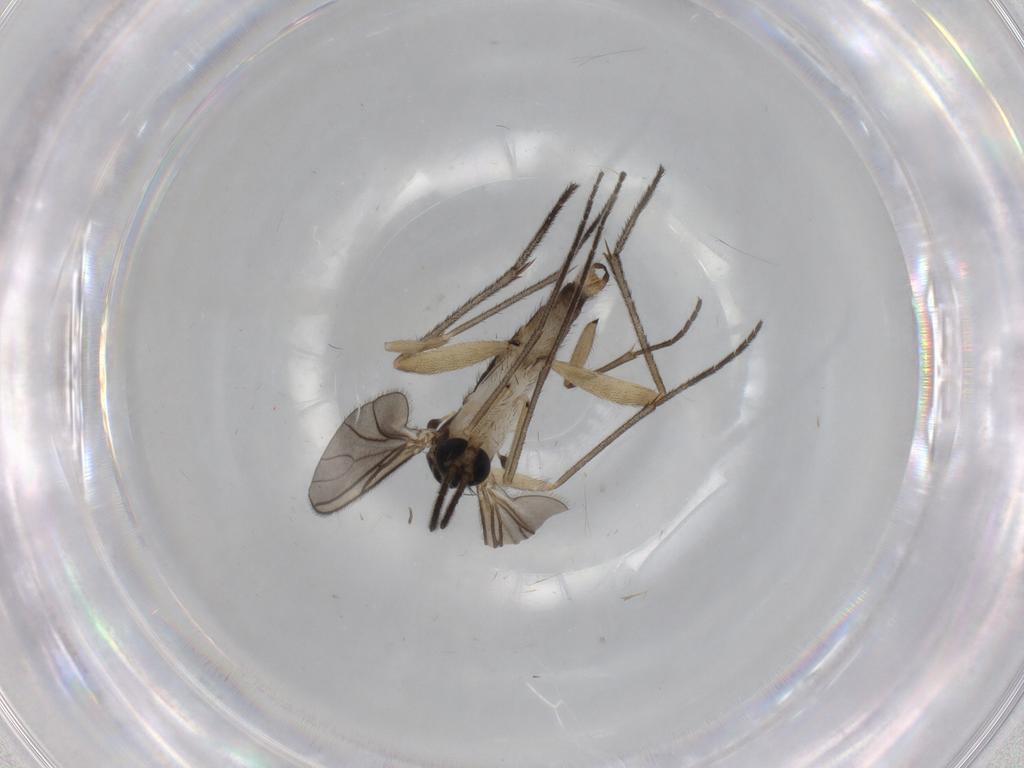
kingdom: Animalia
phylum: Arthropoda
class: Insecta
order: Diptera
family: Sciaridae
